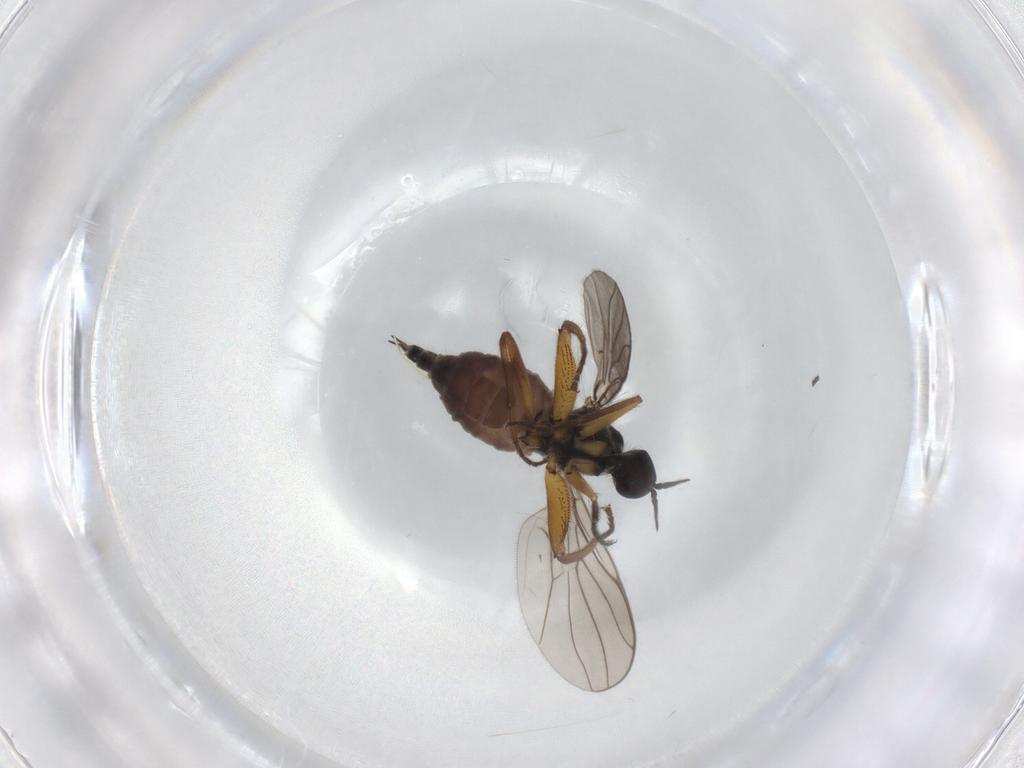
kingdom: Animalia
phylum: Arthropoda
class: Insecta
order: Diptera
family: Hybotidae
